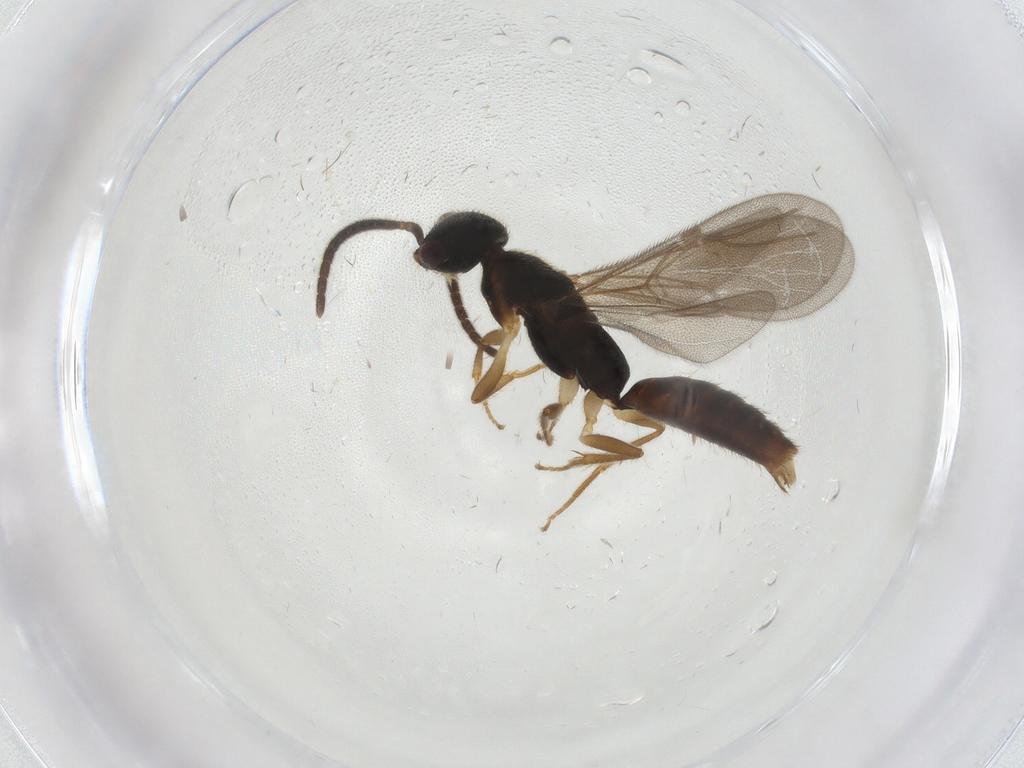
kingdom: Animalia
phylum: Arthropoda
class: Insecta
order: Hymenoptera
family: Bethylidae
